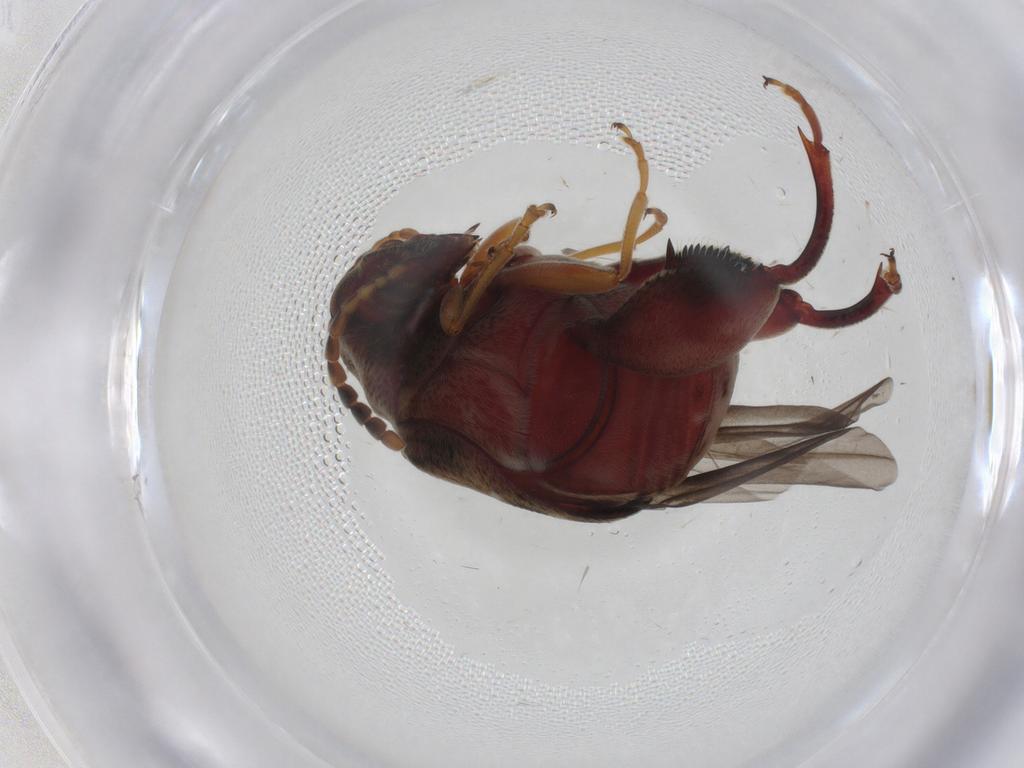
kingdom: Animalia
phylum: Arthropoda
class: Insecta
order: Coleoptera
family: Chrysomelidae
